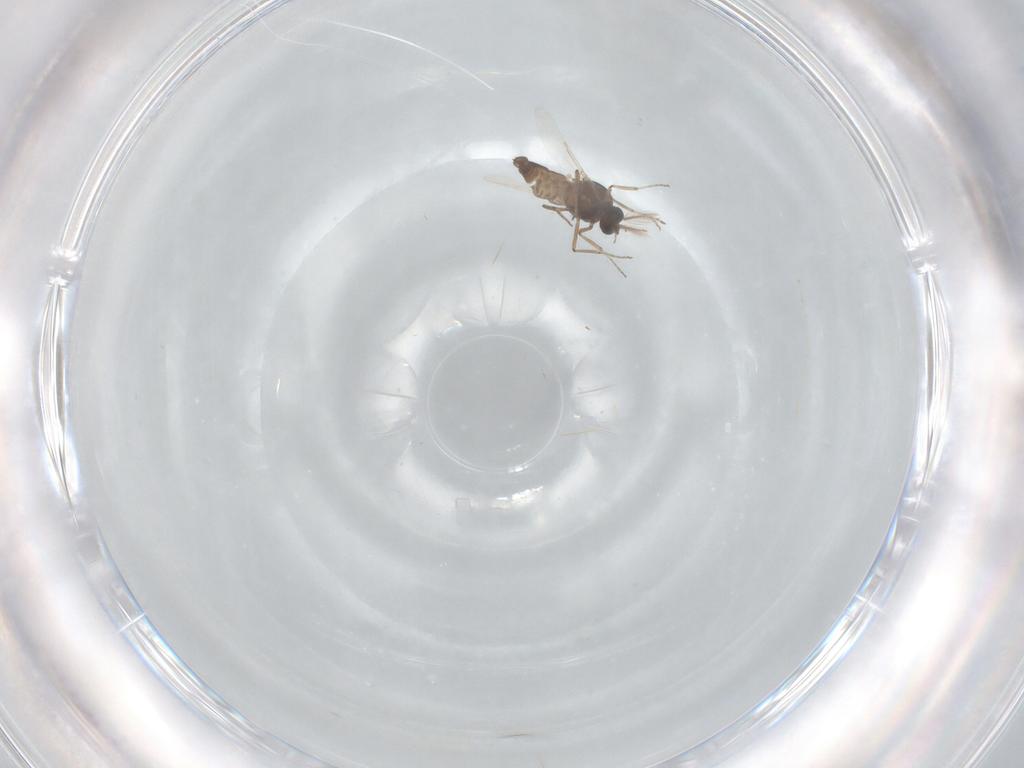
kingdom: Animalia
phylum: Arthropoda
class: Insecta
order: Diptera
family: Ceratopogonidae
